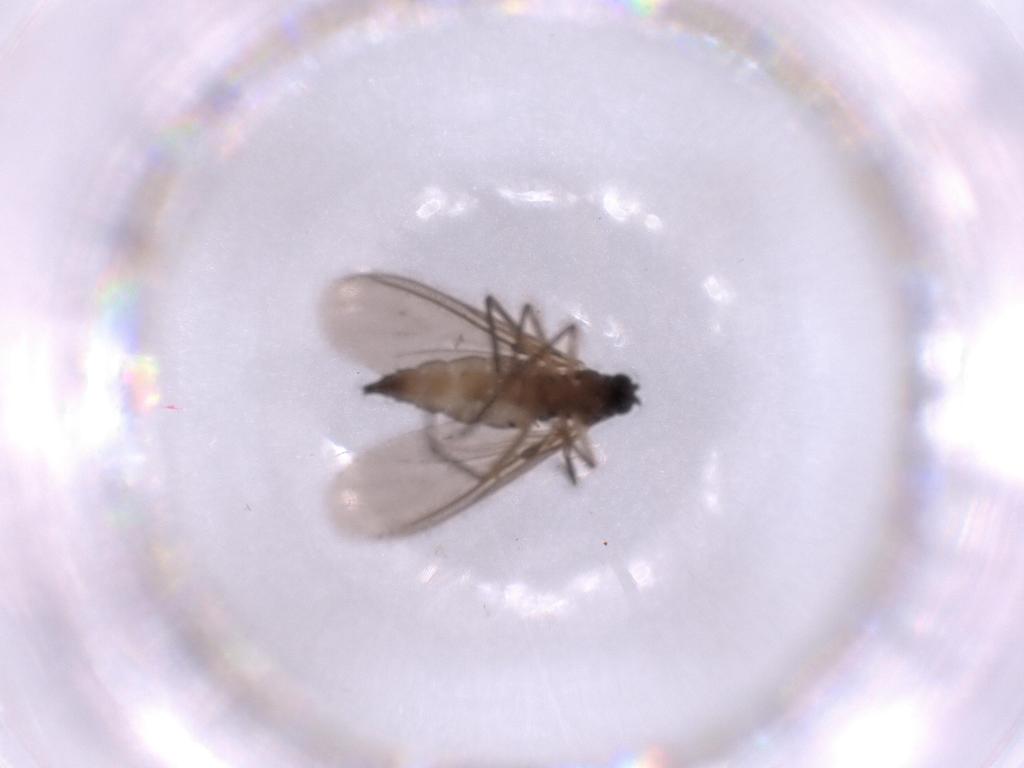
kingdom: Animalia
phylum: Arthropoda
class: Insecta
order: Diptera
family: Sciaridae
